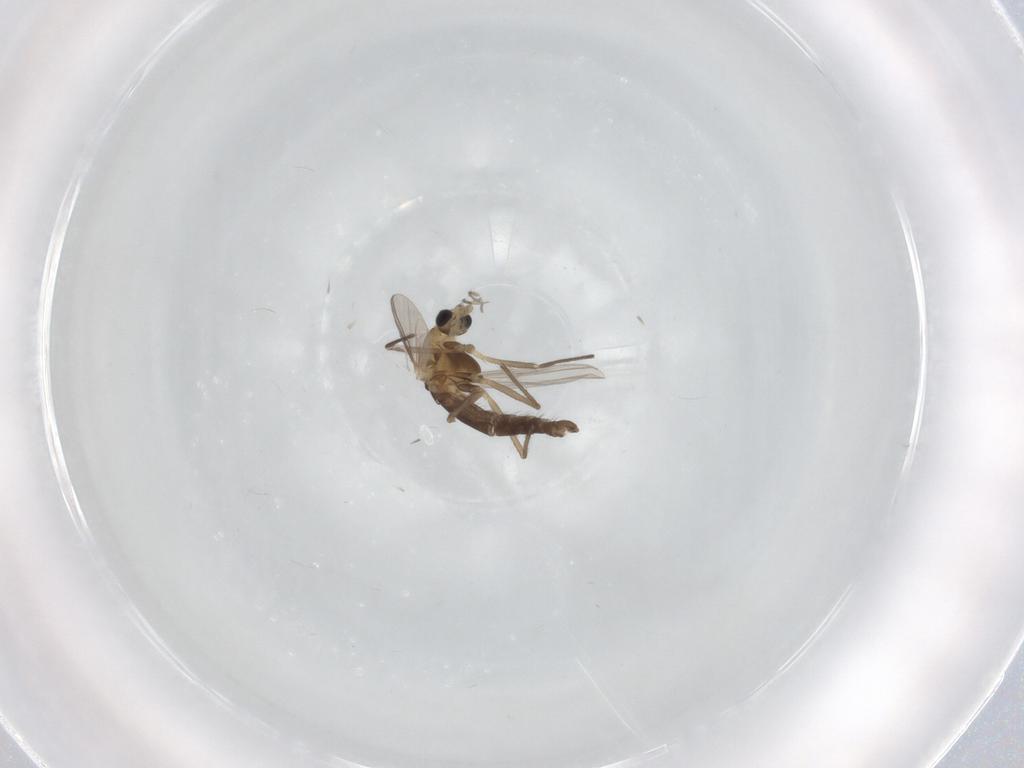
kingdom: Animalia
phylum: Arthropoda
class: Insecta
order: Diptera
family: Chironomidae
